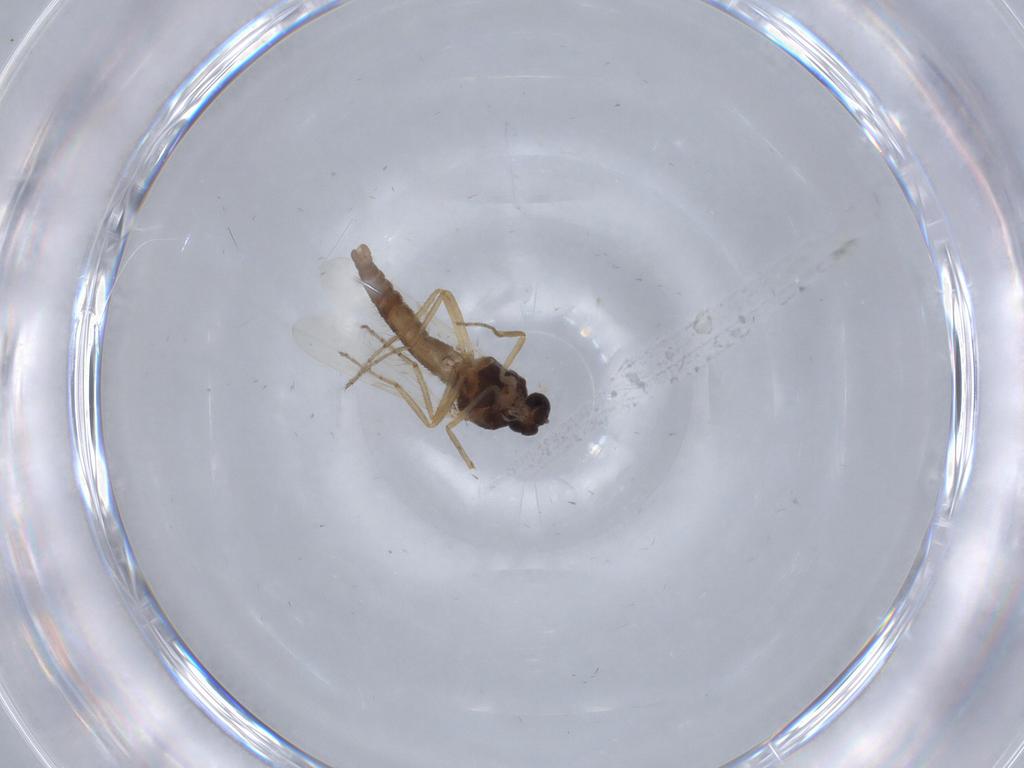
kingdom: Animalia
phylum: Arthropoda
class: Insecta
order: Diptera
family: Ceratopogonidae
